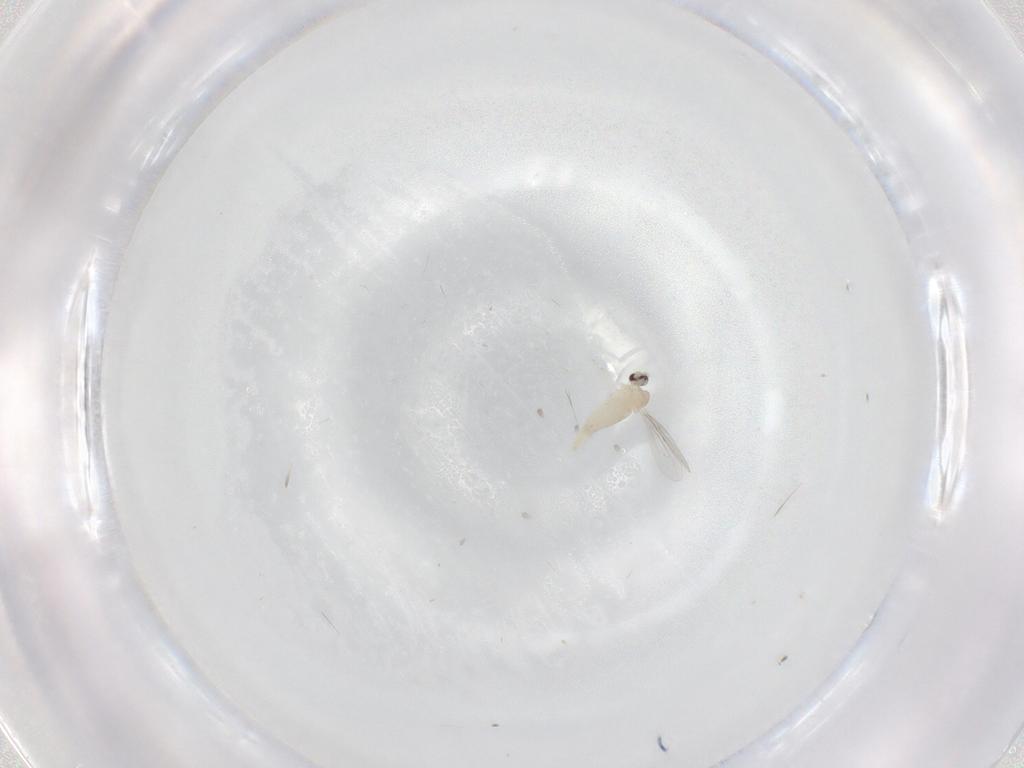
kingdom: Animalia
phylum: Arthropoda
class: Insecta
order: Diptera
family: Cecidomyiidae
